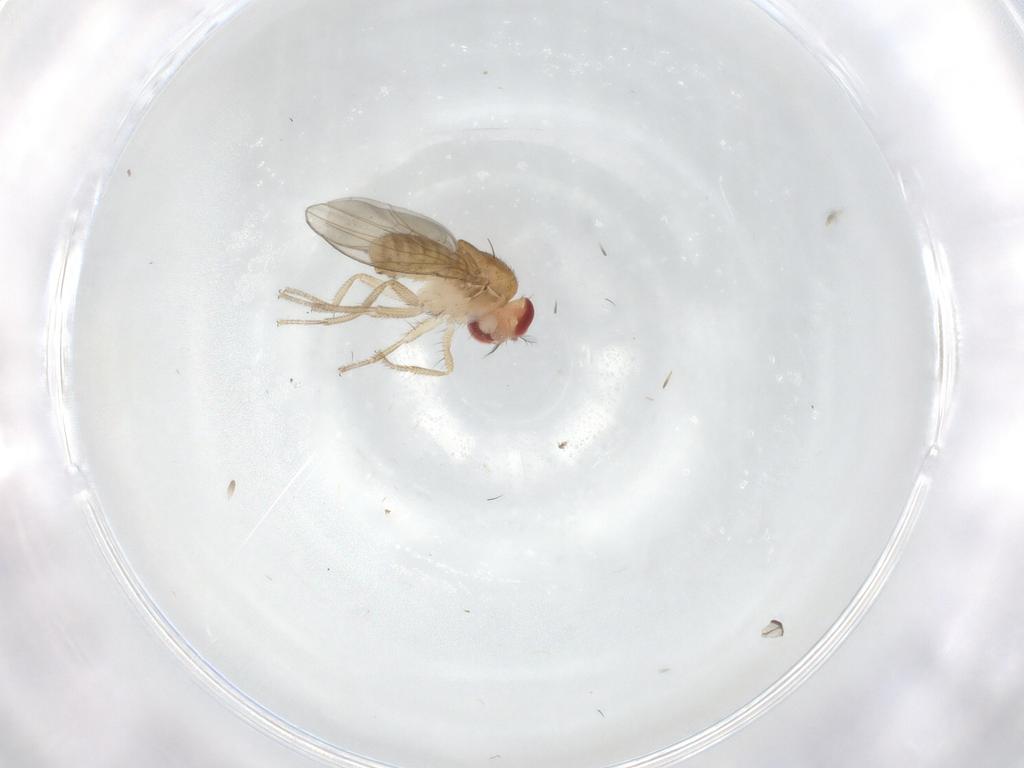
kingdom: Animalia
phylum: Arthropoda
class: Insecta
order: Diptera
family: Drosophilidae
